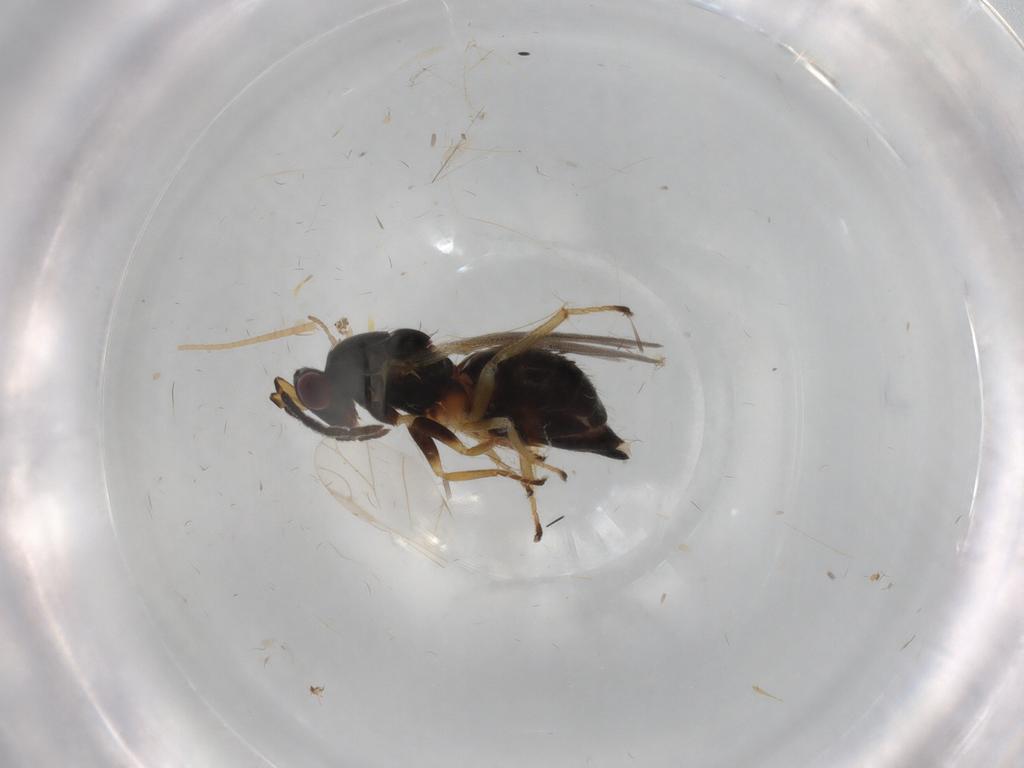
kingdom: Animalia
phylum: Arthropoda
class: Insecta
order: Hymenoptera
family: Eulophidae
